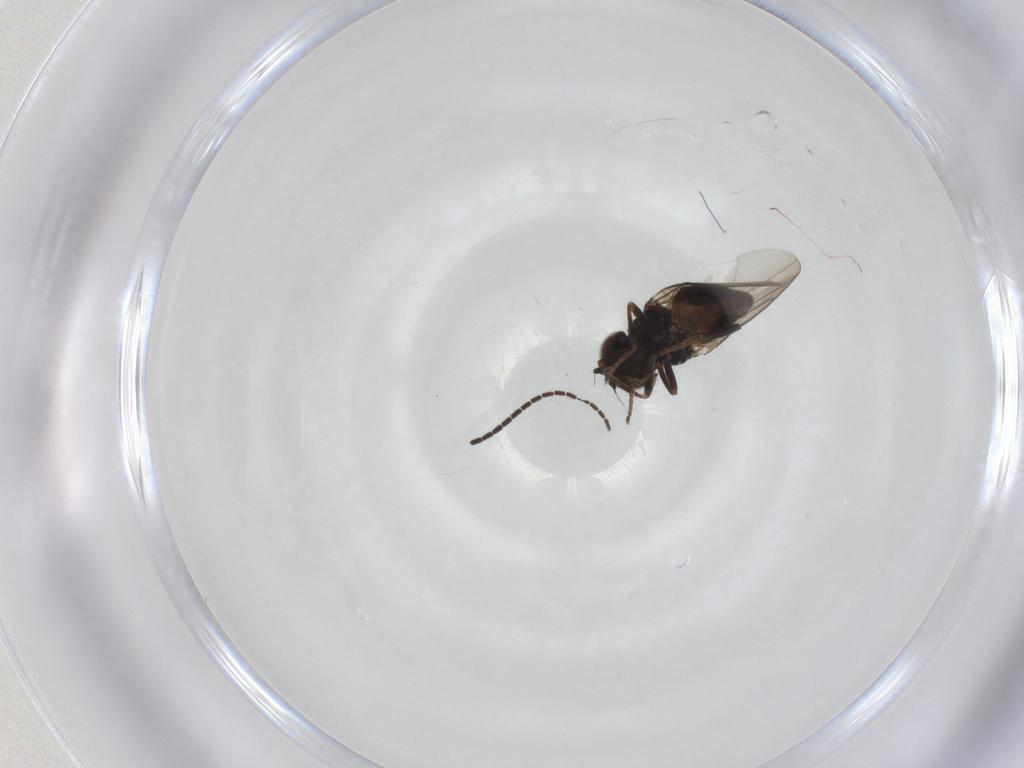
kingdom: Animalia
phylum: Arthropoda
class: Insecta
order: Diptera
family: Chloropidae
